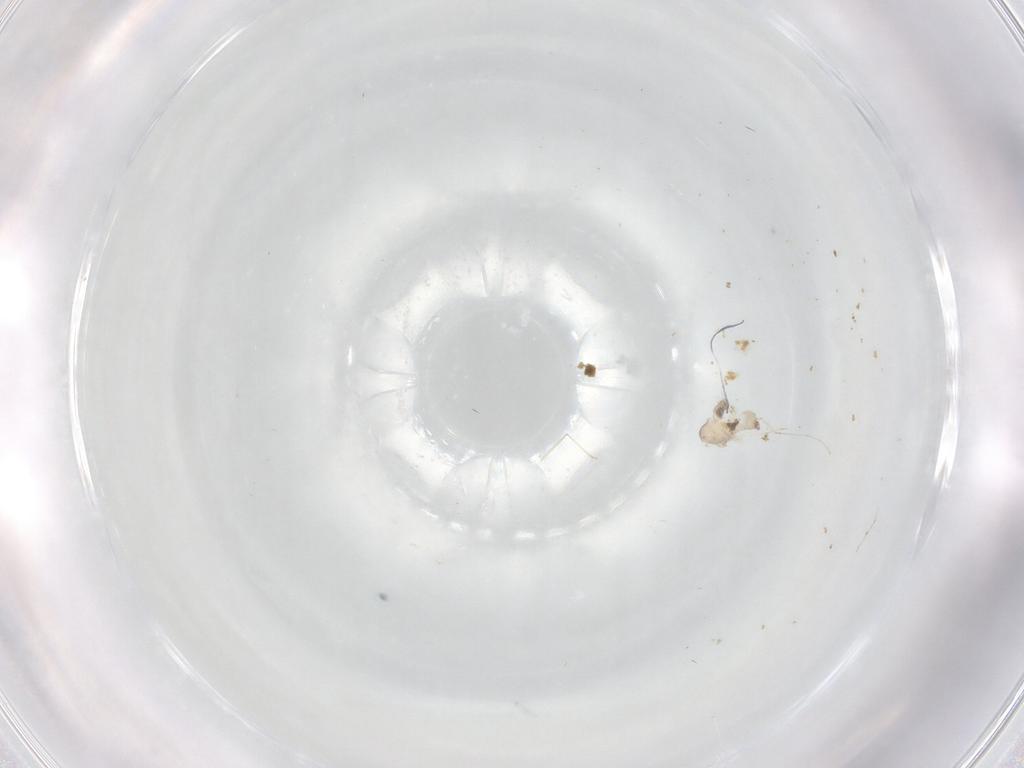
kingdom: Animalia
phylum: Arthropoda
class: Insecta
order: Diptera
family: Cecidomyiidae
